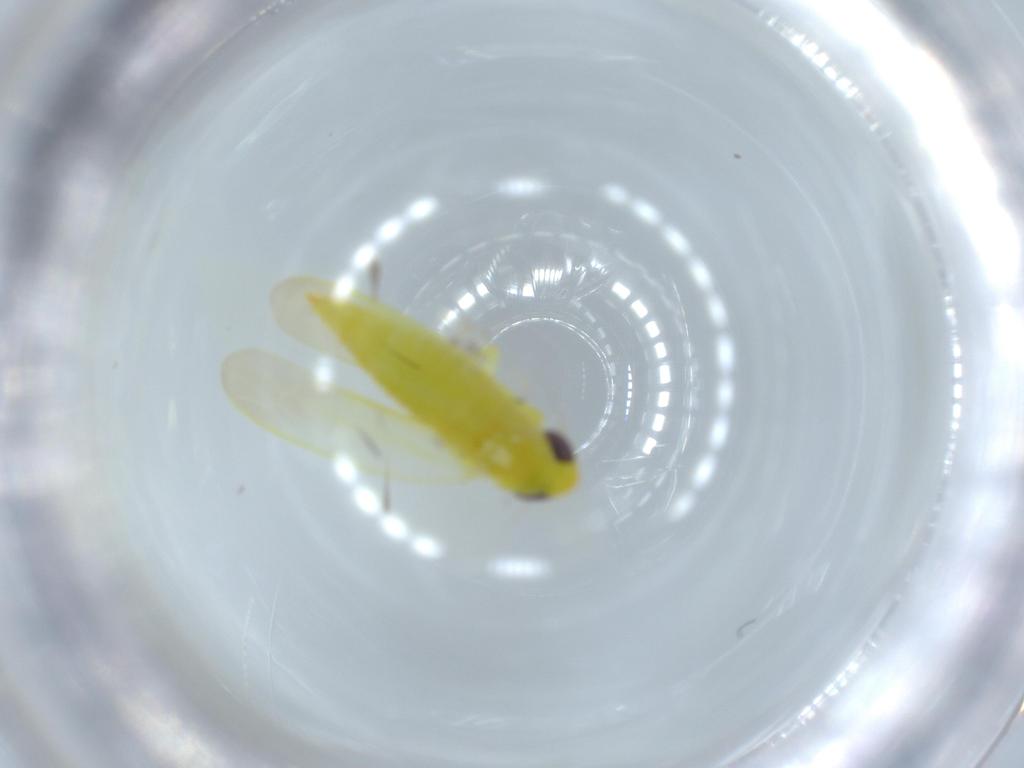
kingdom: Animalia
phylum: Arthropoda
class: Insecta
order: Hemiptera
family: Cicadellidae
